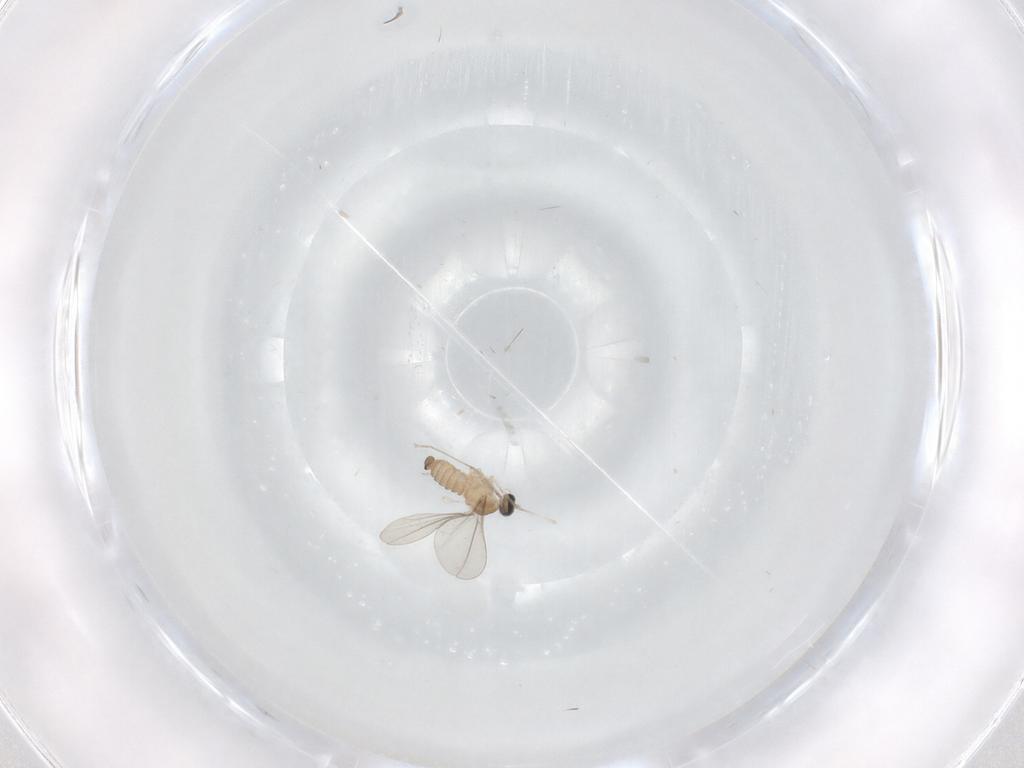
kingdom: Animalia
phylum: Arthropoda
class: Insecta
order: Diptera
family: Cecidomyiidae
